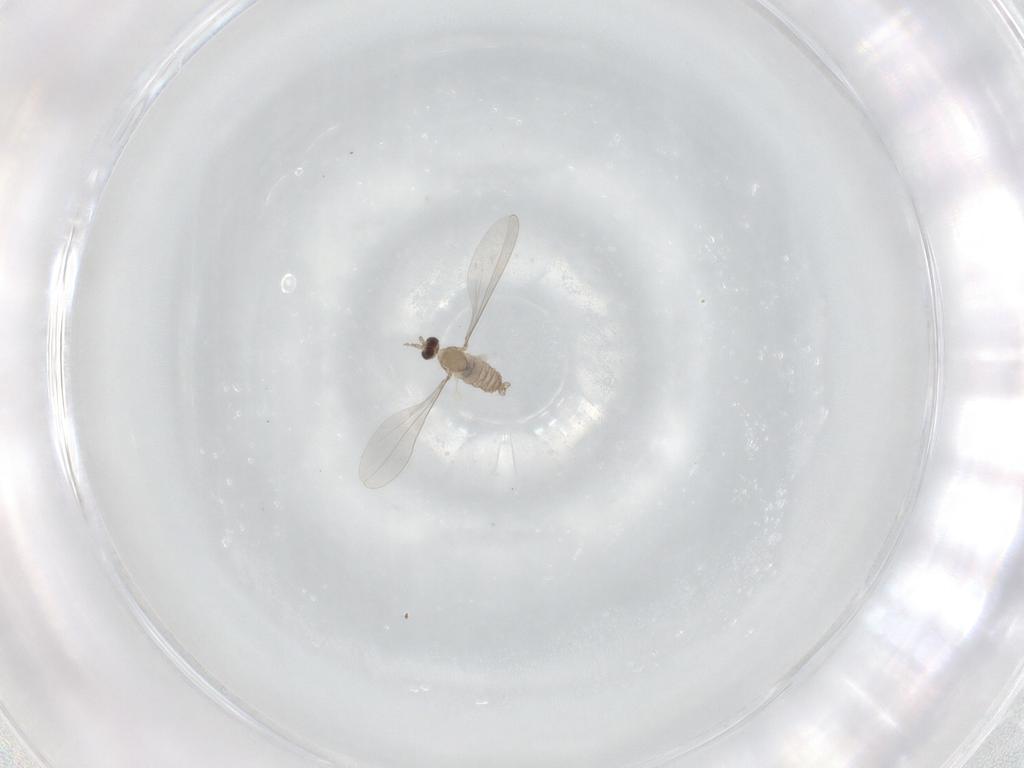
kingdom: Animalia
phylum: Arthropoda
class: Insecta
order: Diptera
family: Cecidomyiidae
